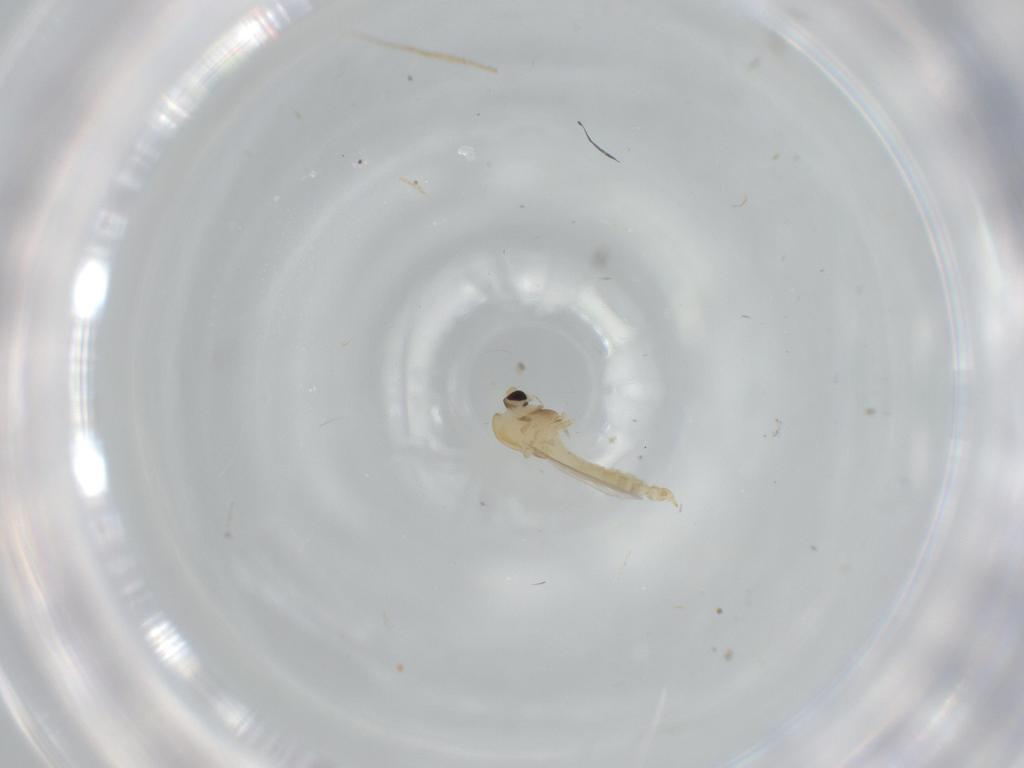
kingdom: Animalia
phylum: Arthropoda
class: Insecta
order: Diptera
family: Chironomidae
